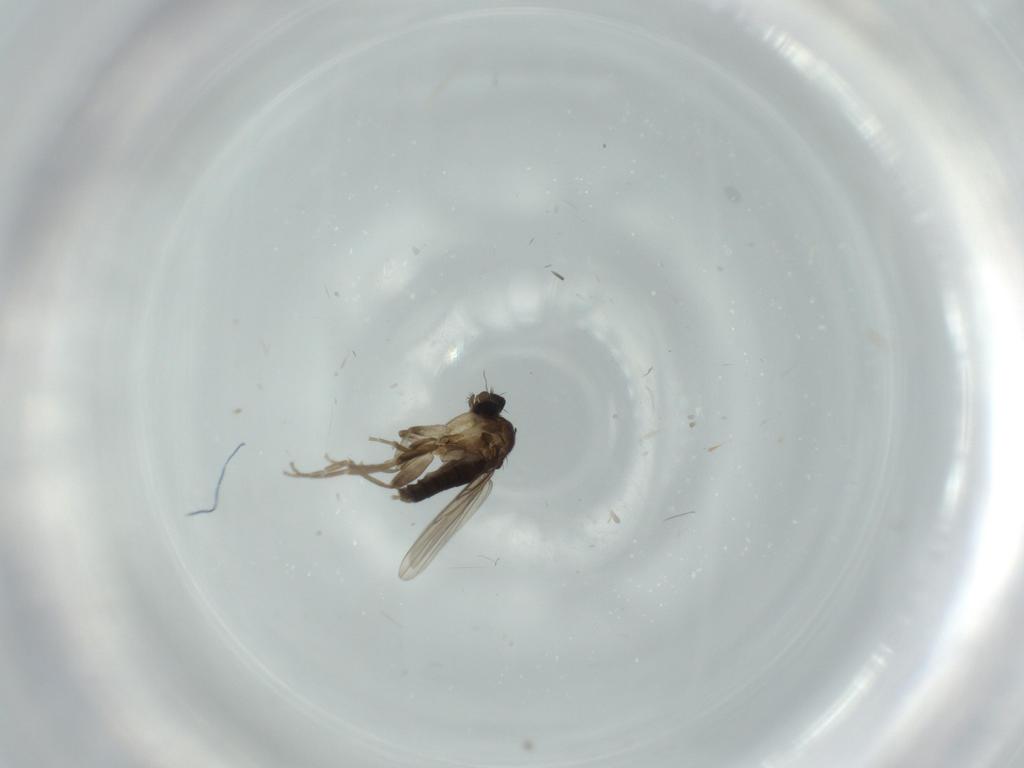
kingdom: Animalia
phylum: Arthropoda
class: Insecta
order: Diptera
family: Phoridae
